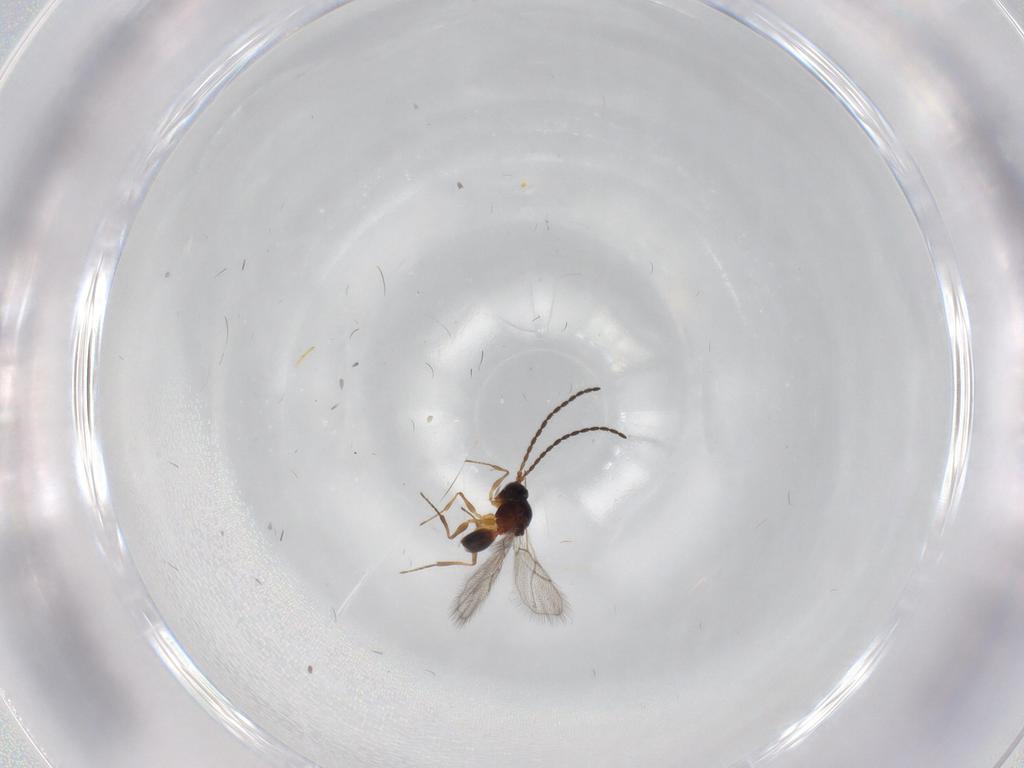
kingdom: Animalia
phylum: Arthropoda
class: Insecta
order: Hymenoptera
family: Figitidae
